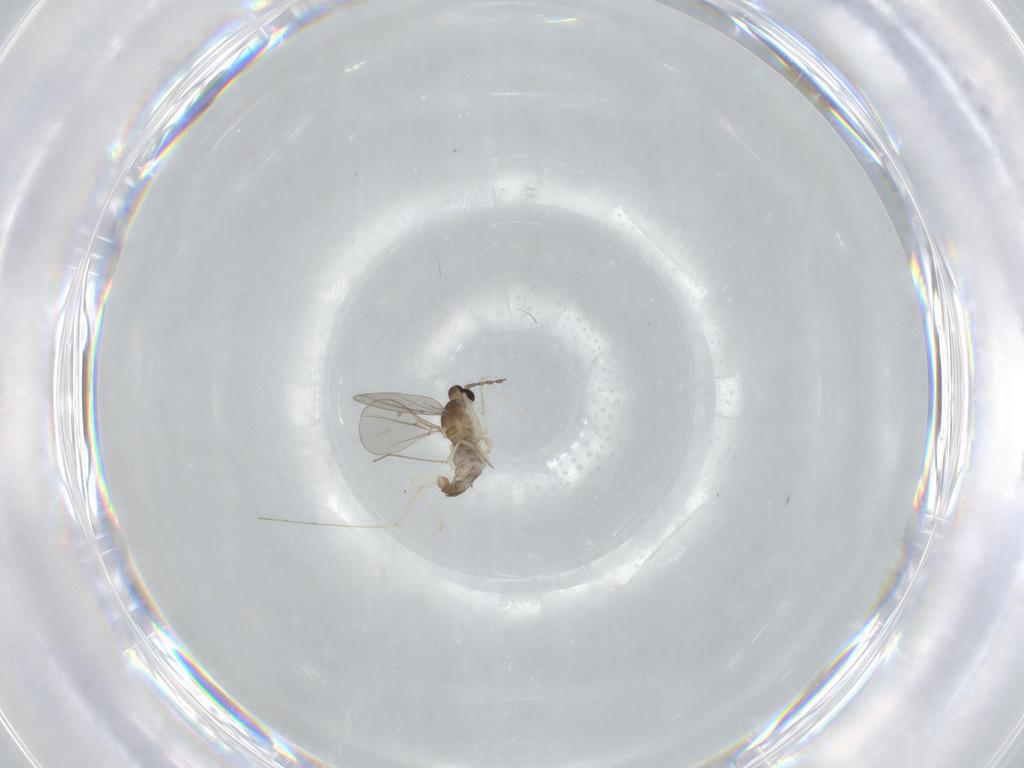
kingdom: Animalia
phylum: Arthropoda
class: Insecta
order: Diptera
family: Cecidomyiidae
